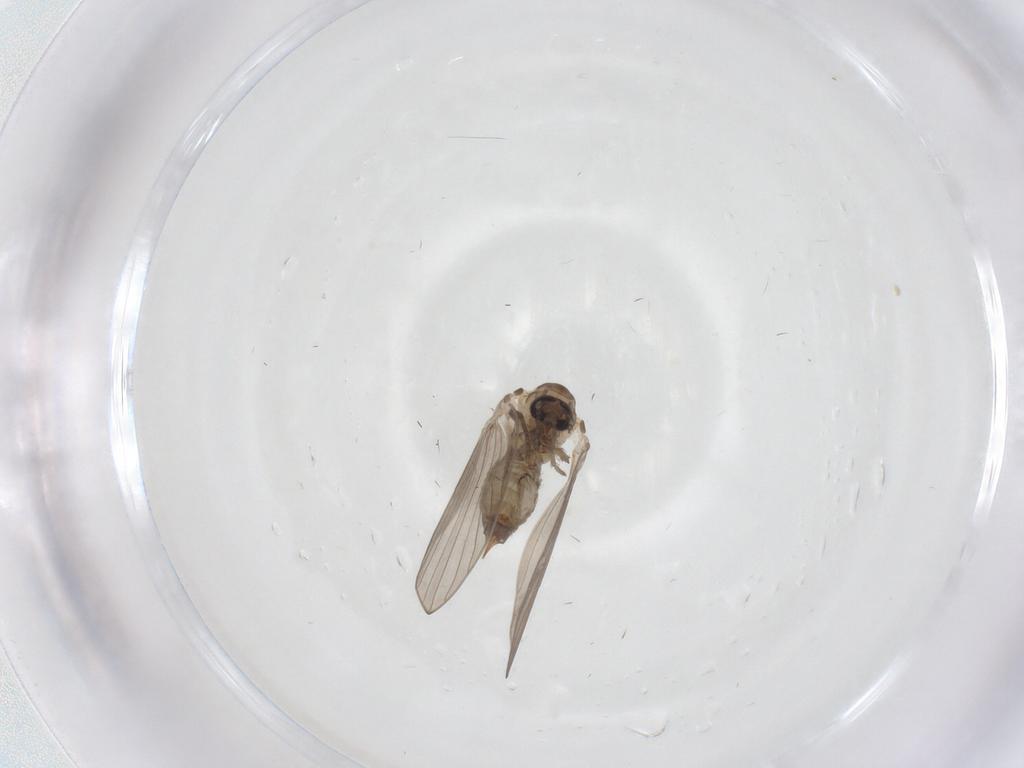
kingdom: Animalia
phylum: Arthropoda
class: Insecta
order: Diptera
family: Psychodidae
